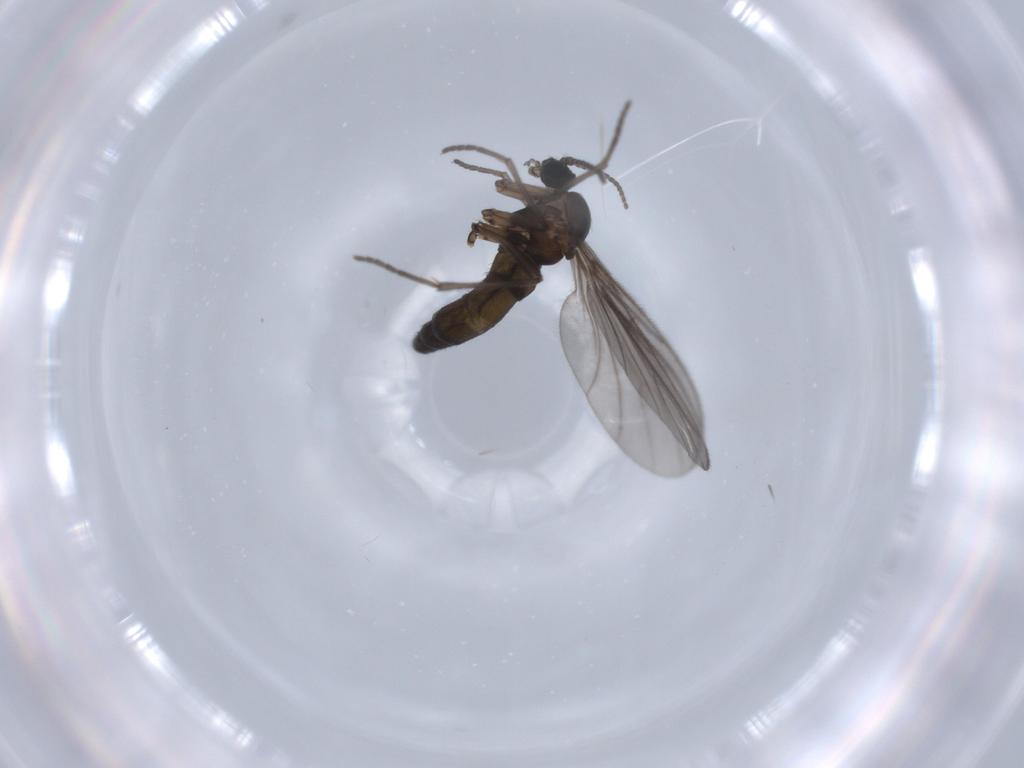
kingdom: Animalia
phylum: Arthropoda
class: Insecta
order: Diptera
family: Sciaridae
